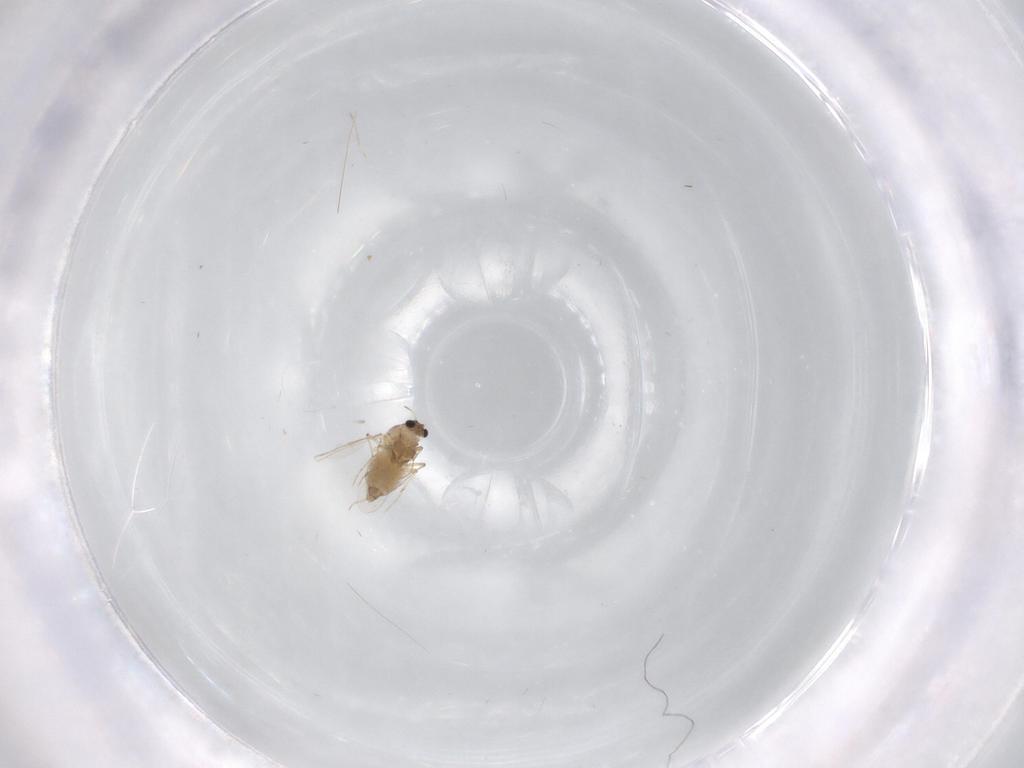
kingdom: Animalia
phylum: Arthropoda
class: Insecta
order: Diptera
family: Chironomidae
